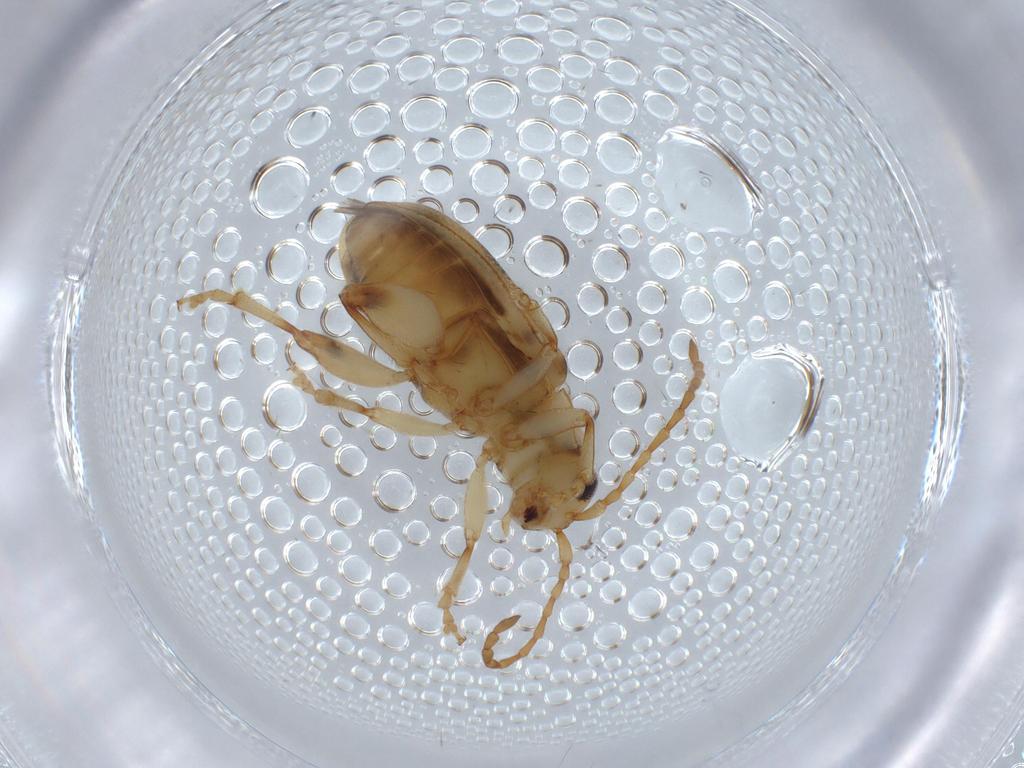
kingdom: Animalia
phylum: Arthropoda
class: Insecta
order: Coleoptera
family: Chrysomelidae
